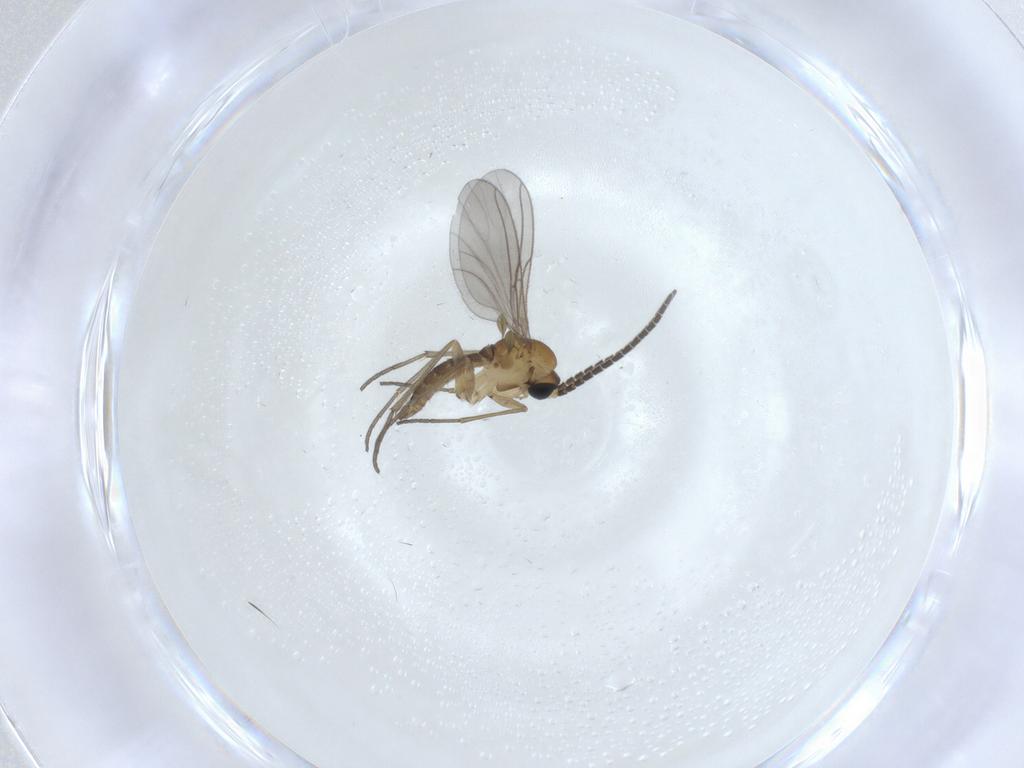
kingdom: Animalia
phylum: Arthropoda
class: Insecta
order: Diptera
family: Sciaridae
